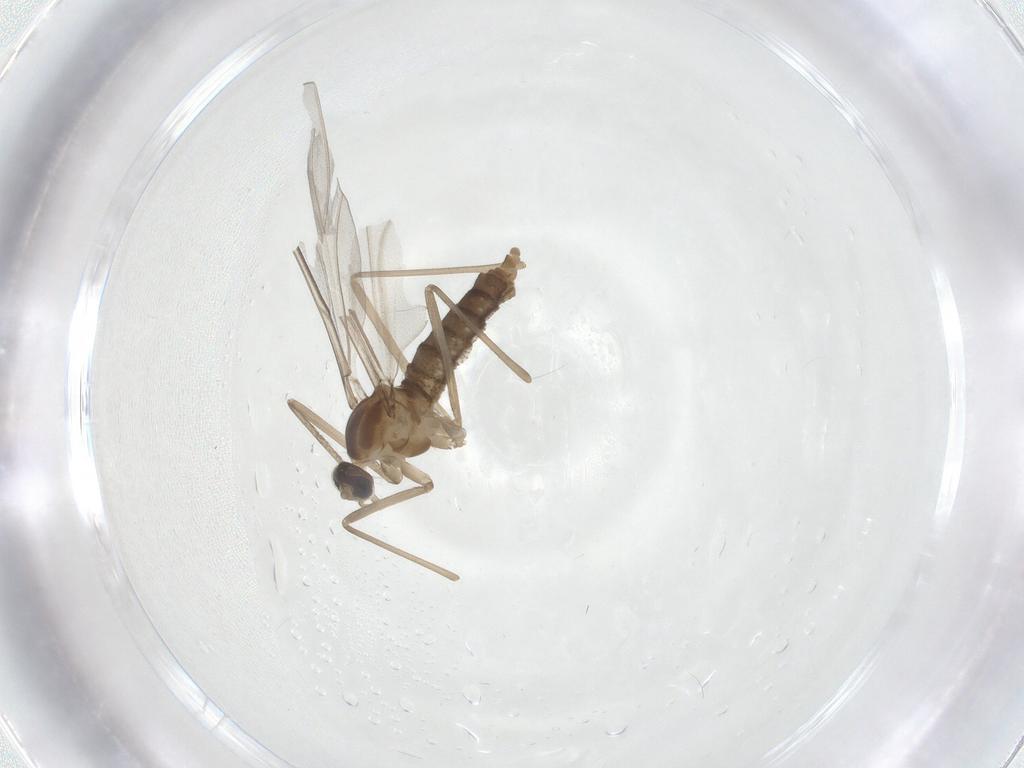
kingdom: Animalia
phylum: Arthropoda
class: Insecta
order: Diptera
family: Cecidomyiidae
